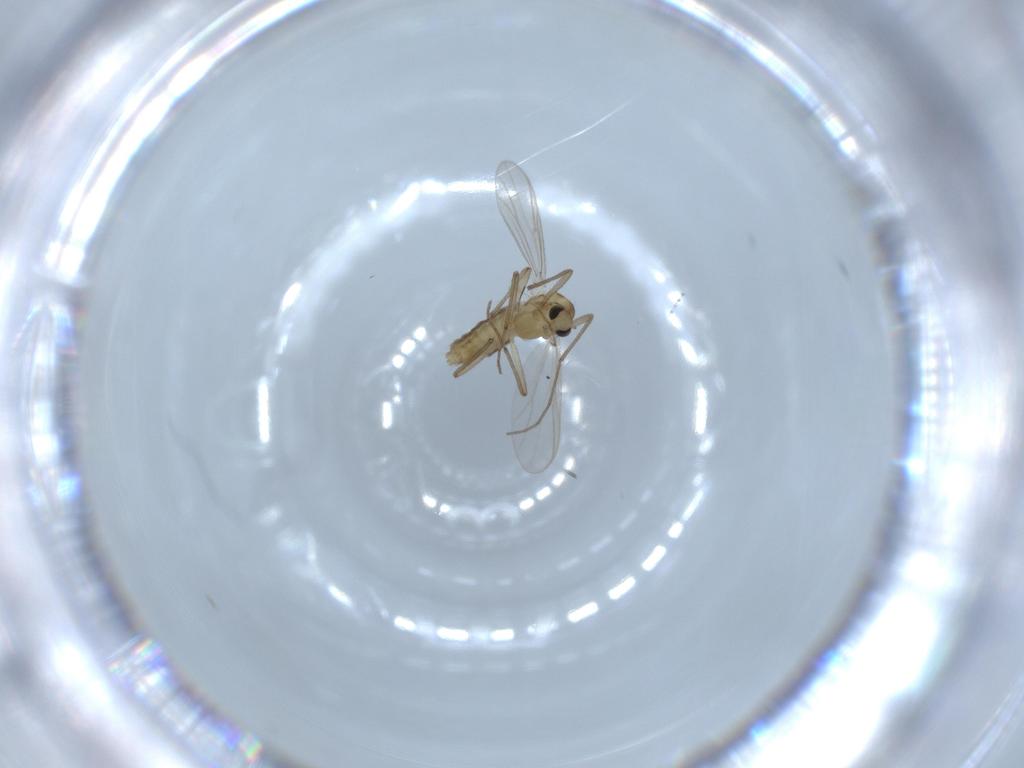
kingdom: Animalia
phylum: Arthropoda
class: Insecta
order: Diptera
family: Chironomidae
